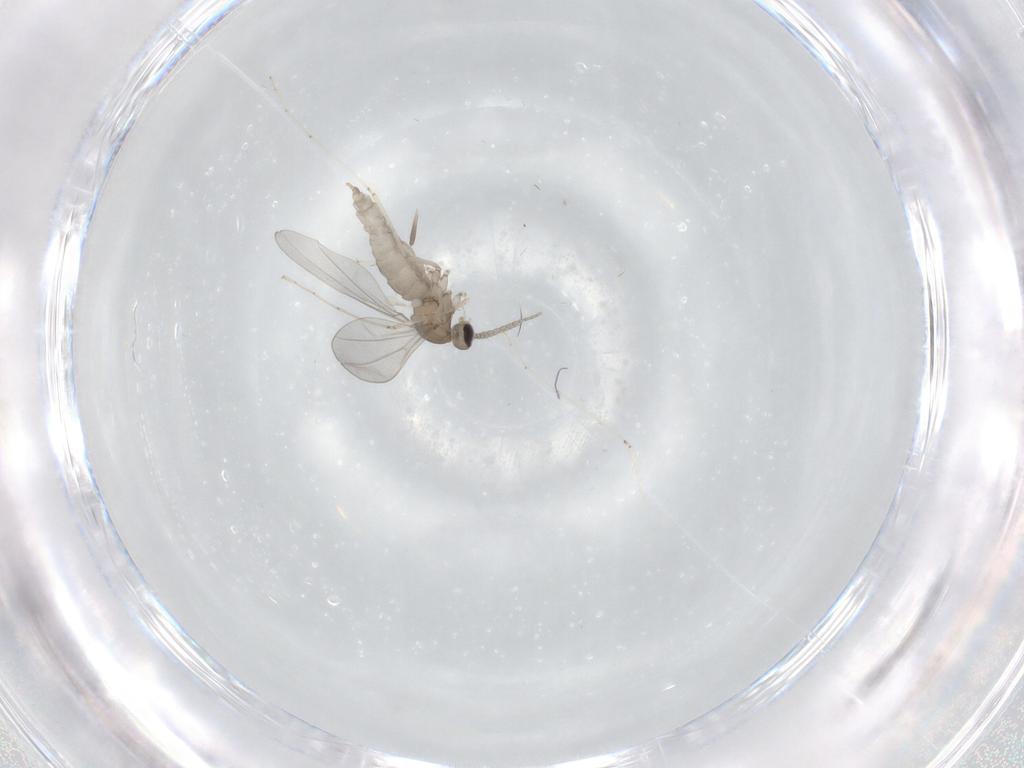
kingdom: Animalia
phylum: Arthropoda
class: Insecta
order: Diptera
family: Cecidomyiidae
